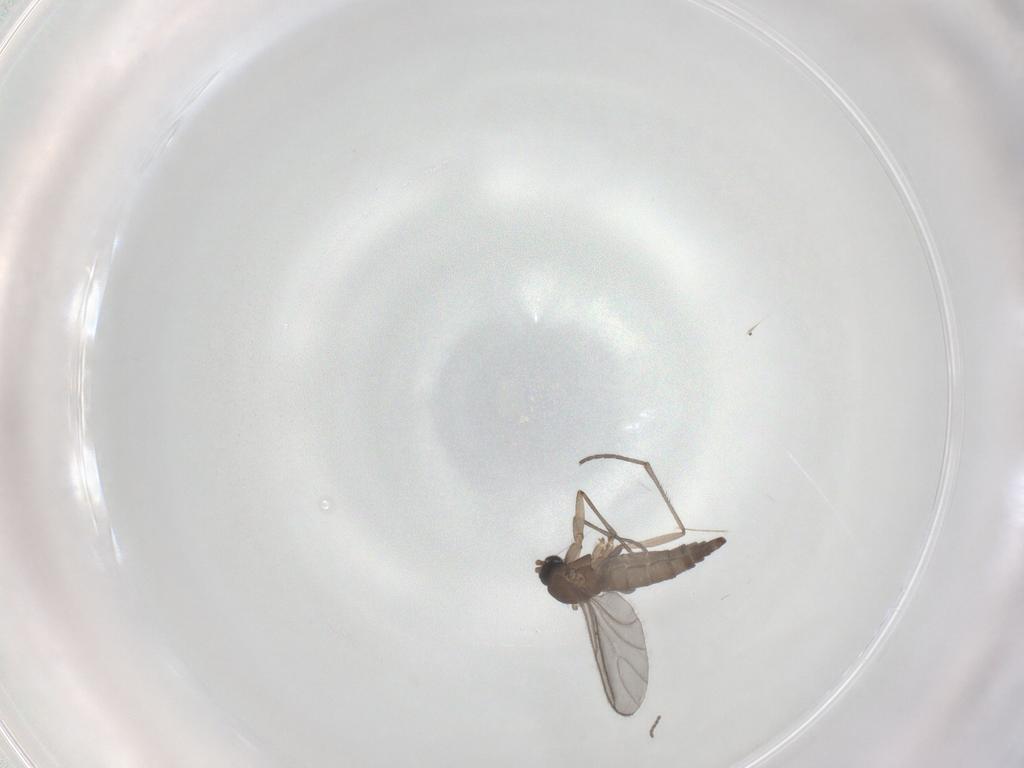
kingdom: Animalia
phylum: Arthropoda
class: Insecta
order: Diptera
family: Sciaridae
